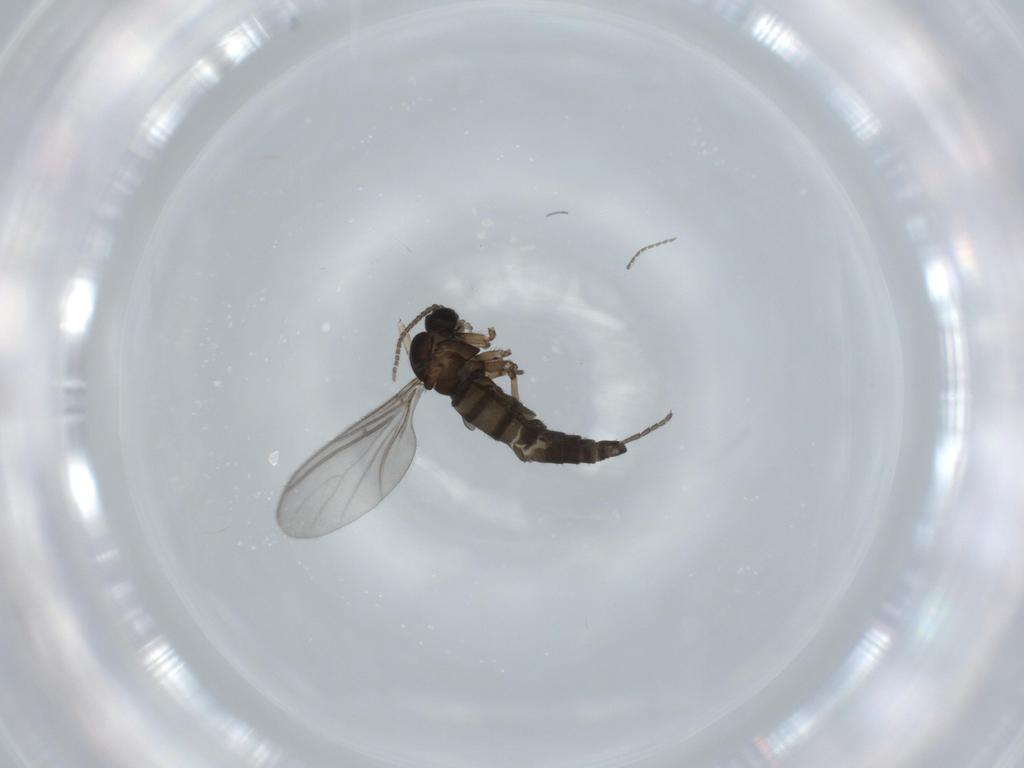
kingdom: Animalia
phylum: Arthropoda
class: Insecta
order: Diptera
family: Sciaridae
